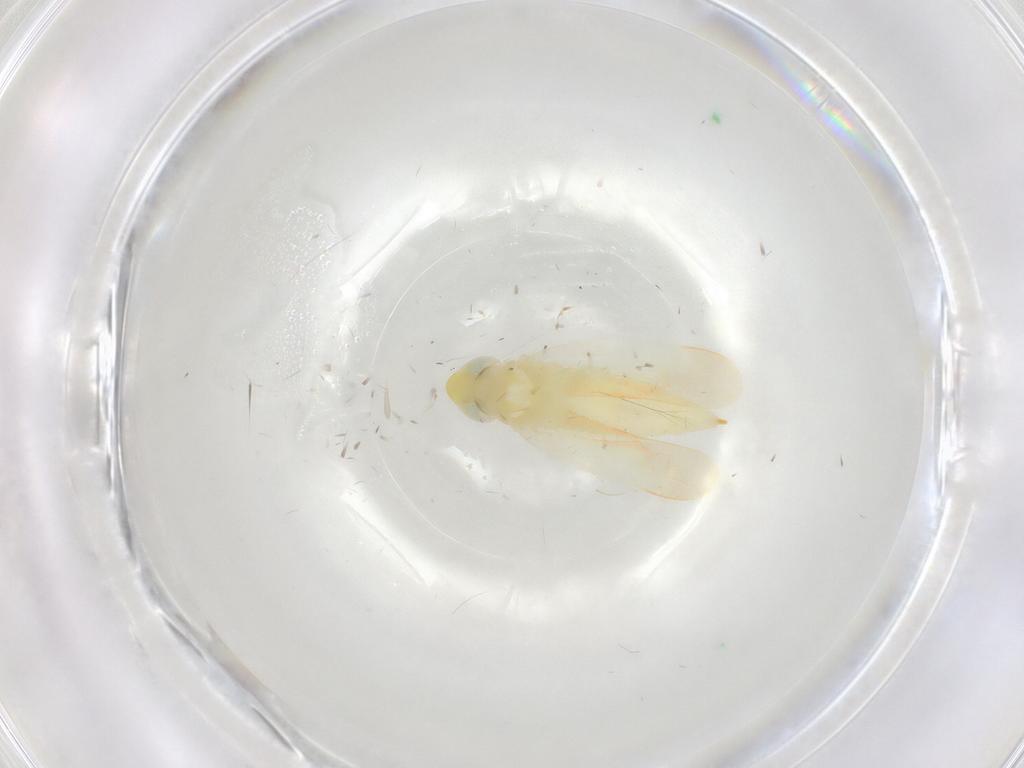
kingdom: Animalia
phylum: Arthropoda
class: Insecta
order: Hemiptera
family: Cicadellidae
